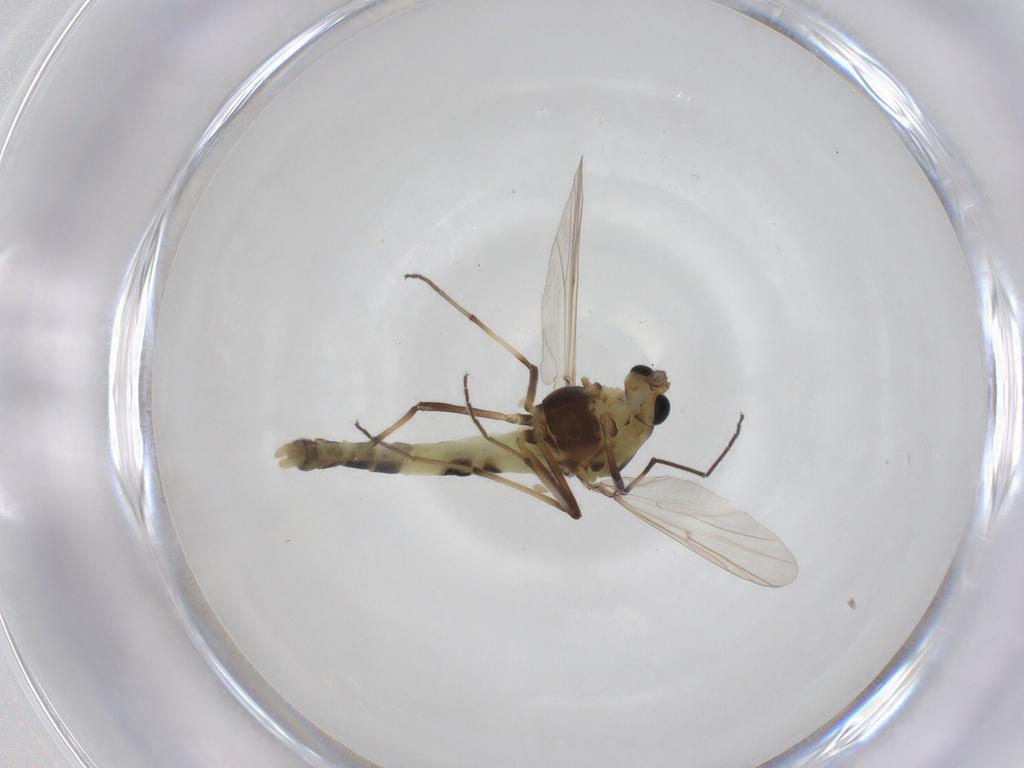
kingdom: Animalia
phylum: Arthropoda
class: Insecta
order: Diptera
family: Chironomidae
